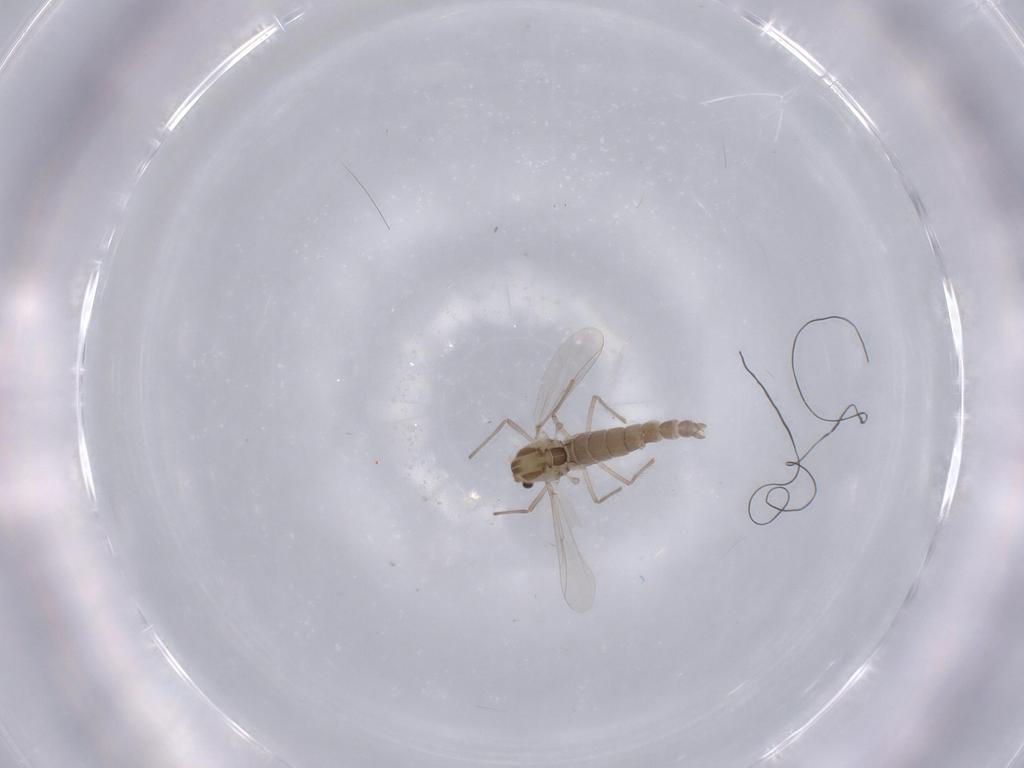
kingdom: Animalia
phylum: Arthropoda
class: Insecta
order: Diptera
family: Chironomidae
